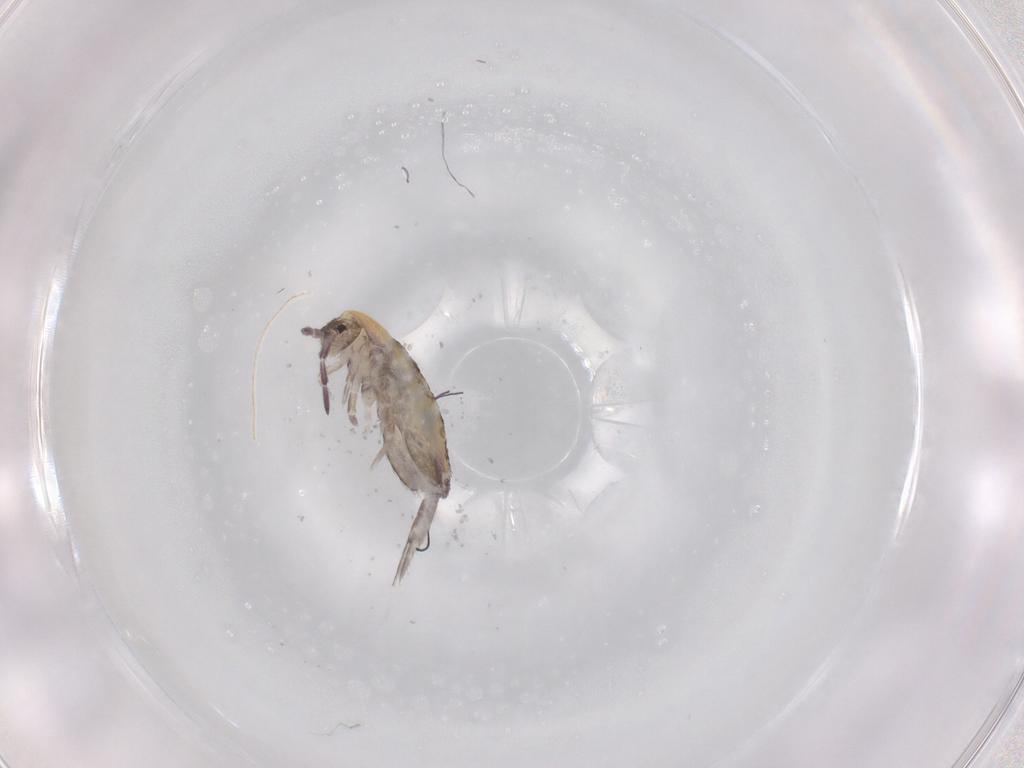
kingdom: Animalia
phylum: Arthropoda
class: Collembola
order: Entomobryomorpha
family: Entomobryidae
